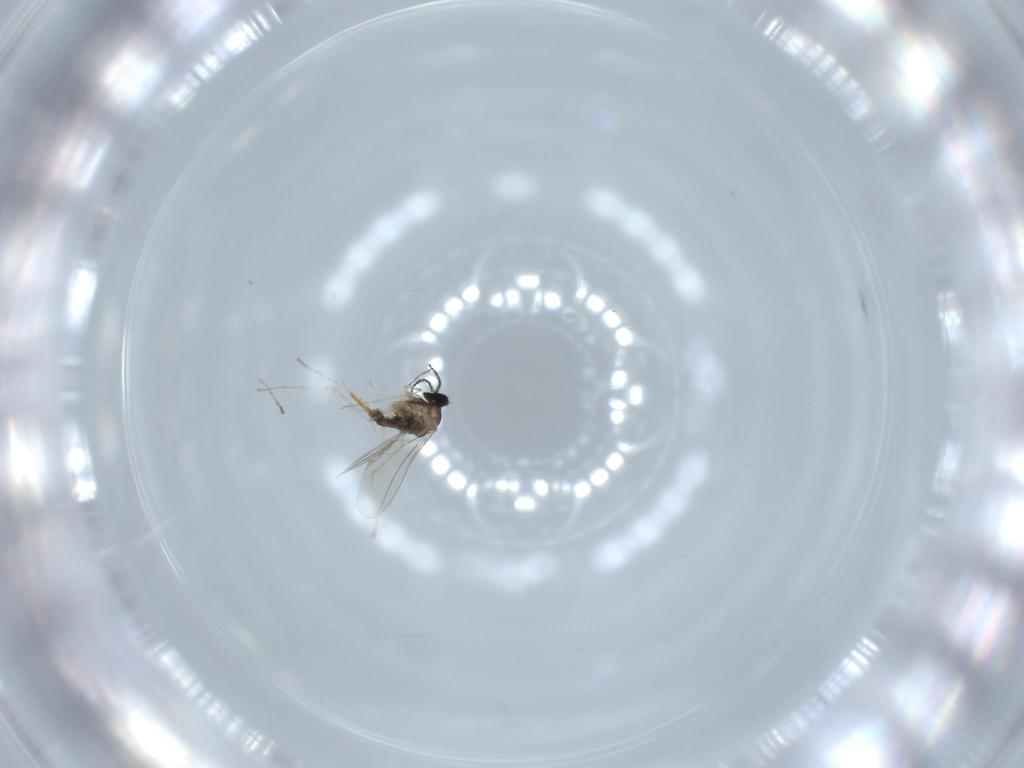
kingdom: Animalia
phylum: Arthropoda
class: Insecta
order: Diptera
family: Cecidomyiidae
